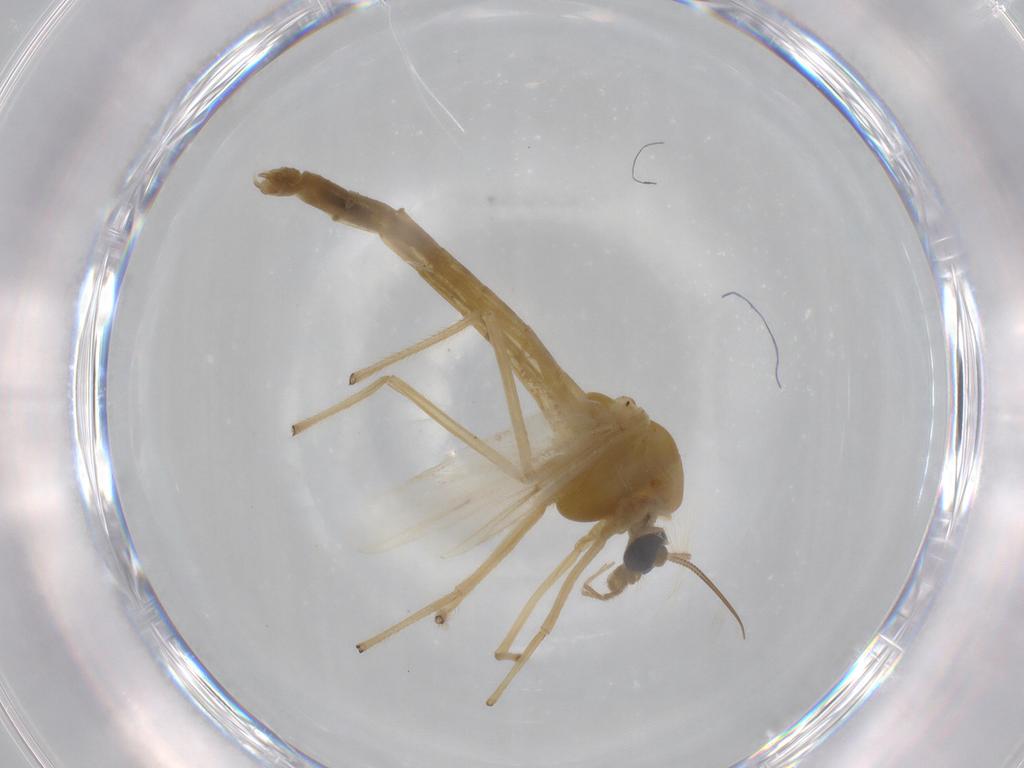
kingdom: Animalia
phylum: Arthropoda
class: Insecta
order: Diptera
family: Chironomidae
